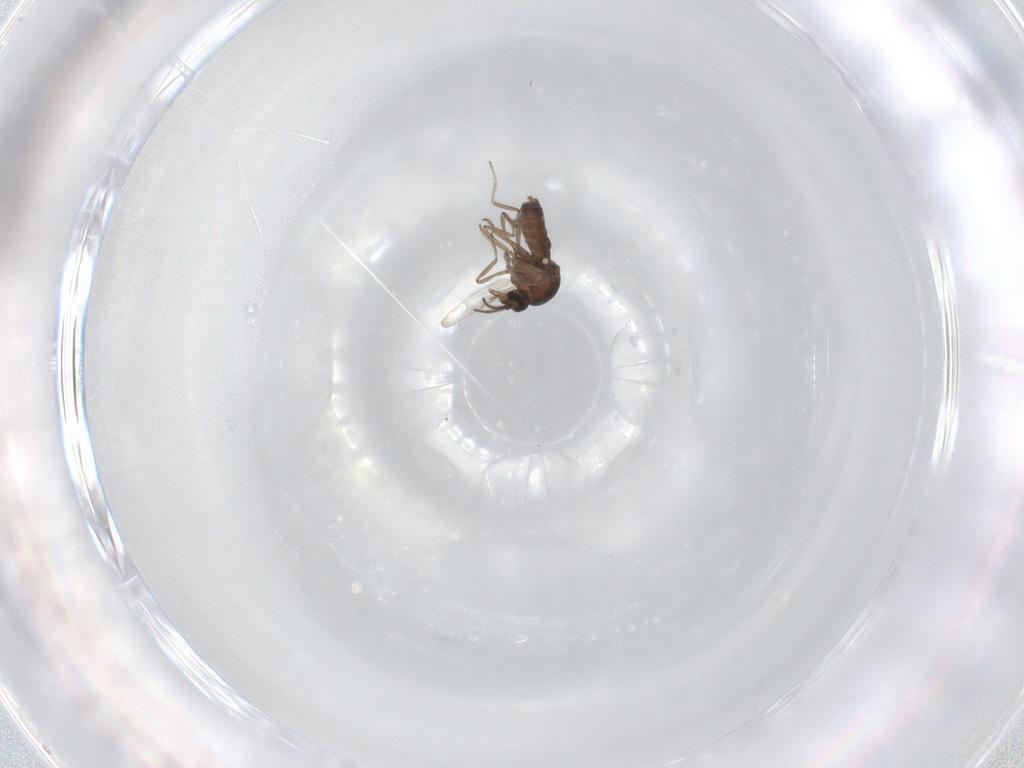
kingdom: Animalia
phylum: Arthropoda
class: Insecta
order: Diptera
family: Ceratopogonidae
